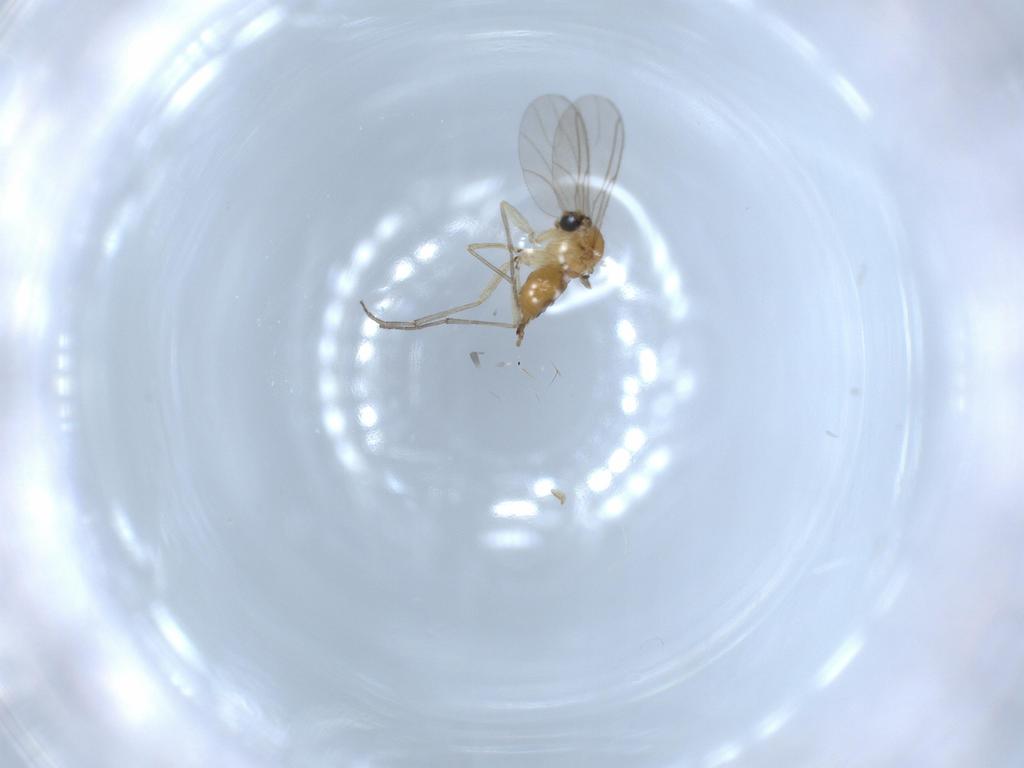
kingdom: Animalia
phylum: Arthropoda
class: Insecta
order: Diptera
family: Sciaridae
